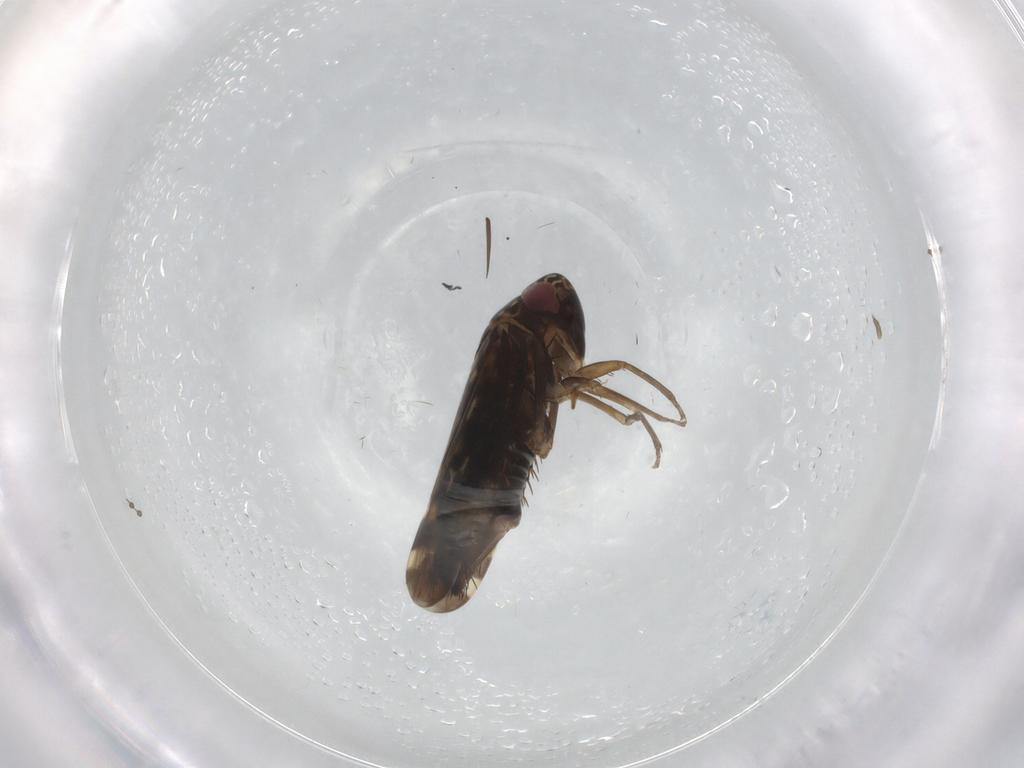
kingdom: Animalia
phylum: Arthropoda
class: Insecta
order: Hemiptera
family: Cicadellidae
